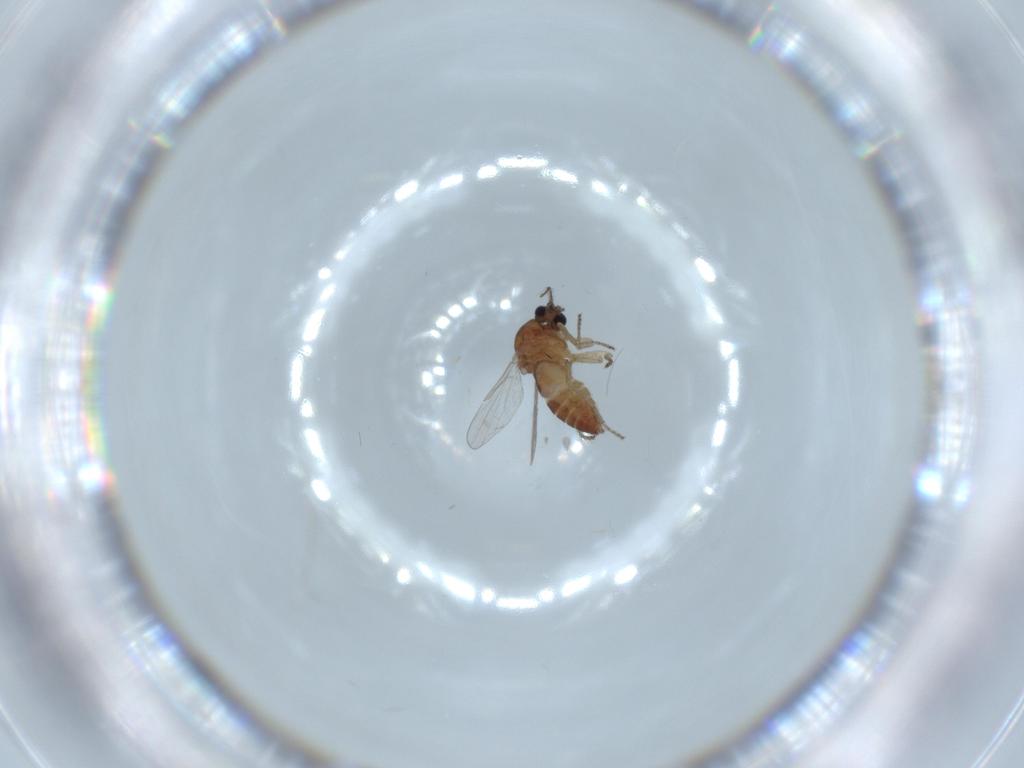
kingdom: Animalia
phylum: Arthropoda
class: Insecta
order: Diptera
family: Ceratopogonidae
